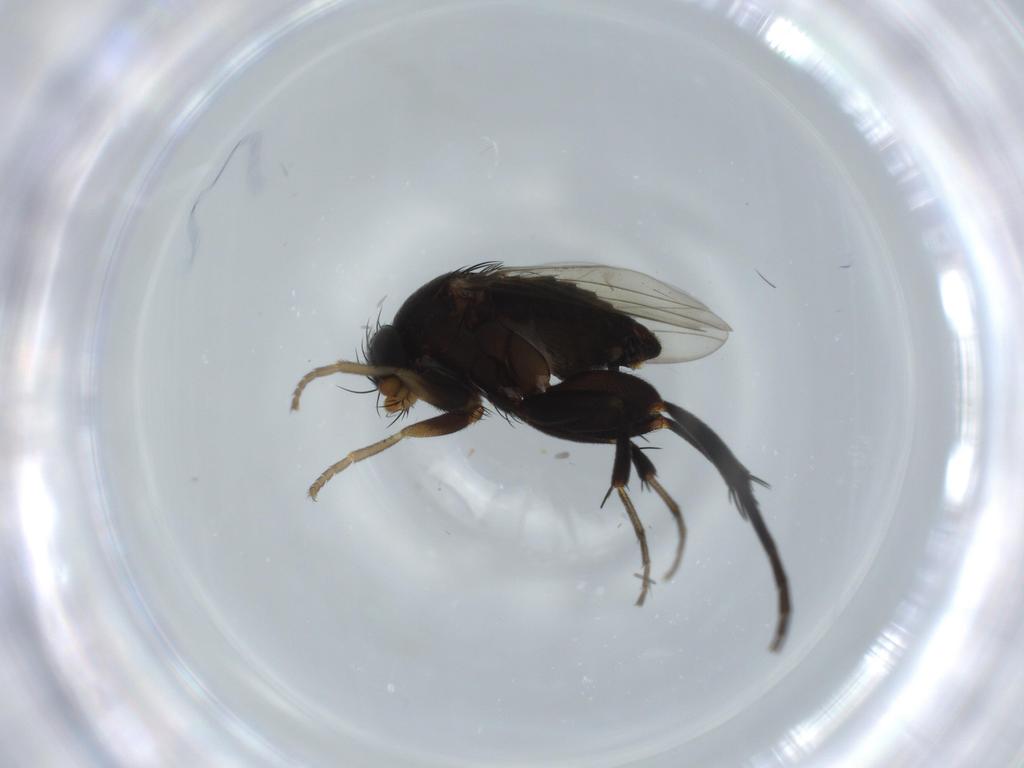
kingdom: Animalia
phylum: Arthropoda
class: Insecta
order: Diptera
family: Phoridae
